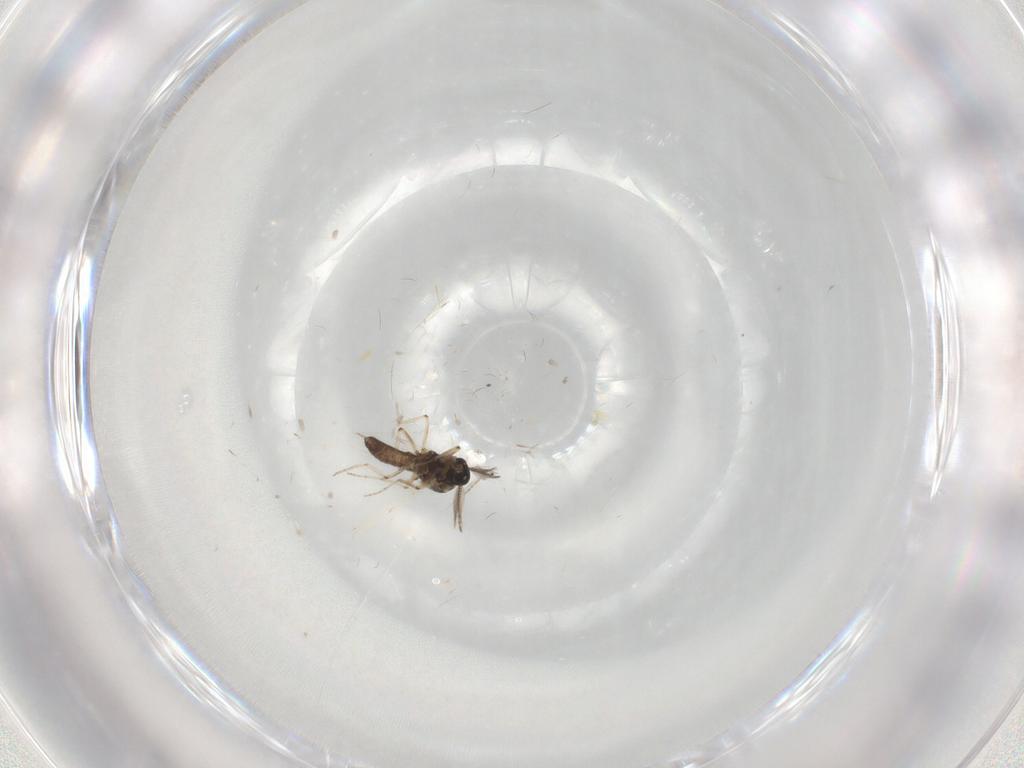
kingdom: Animalia
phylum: Arthropoda
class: Insecta
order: Diptera
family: Ceratopogonidae
